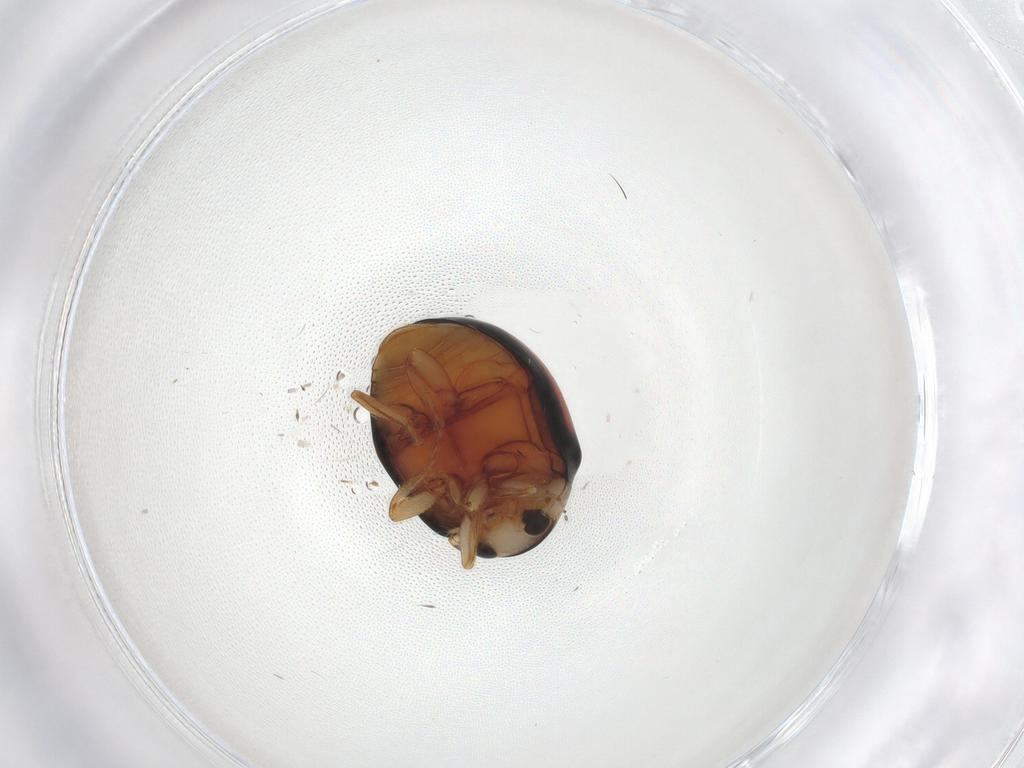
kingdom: Animalia
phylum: Arthropoda
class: Insecta
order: Coleoptera
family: Coccinellidae
